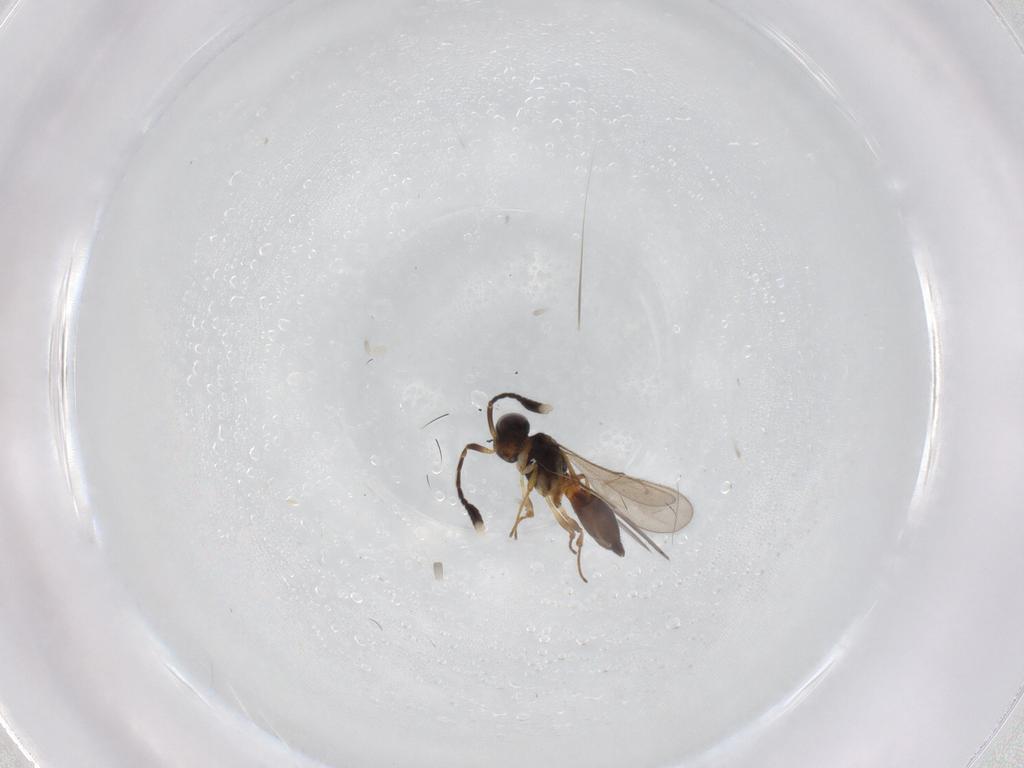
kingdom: Animalia
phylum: Arthropoda
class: Insecta
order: Hymenoptera
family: Scelionidae
